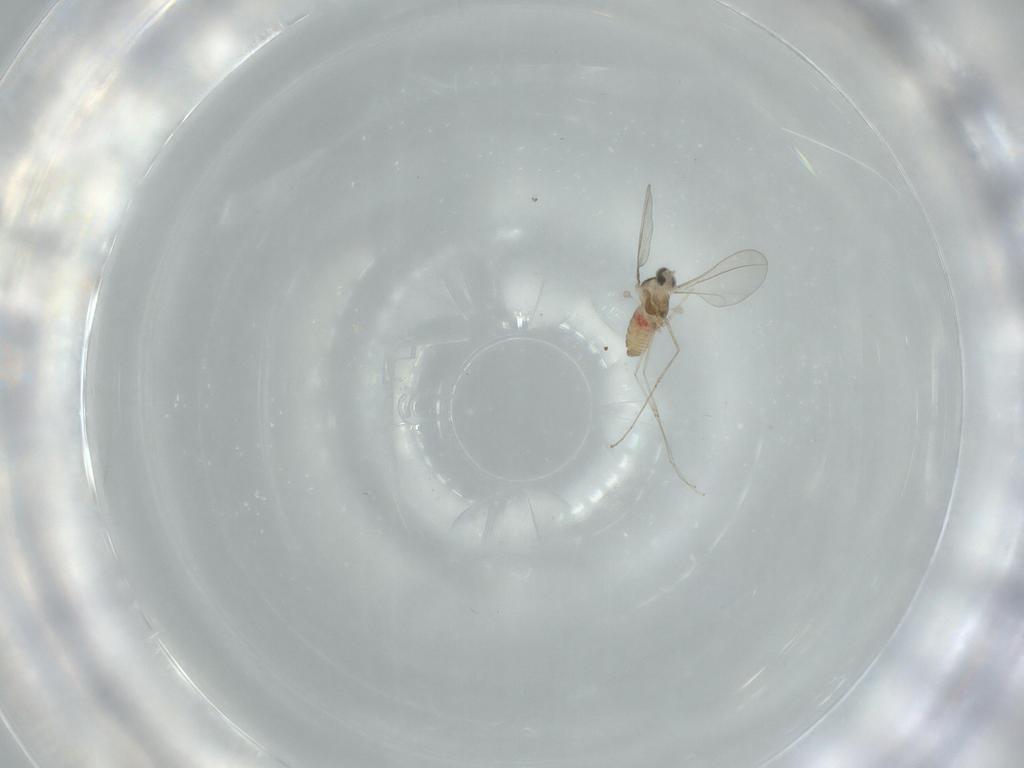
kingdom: Animalia
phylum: Arthropoda
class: Insecta
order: Diptera
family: Cecidomyiidae
